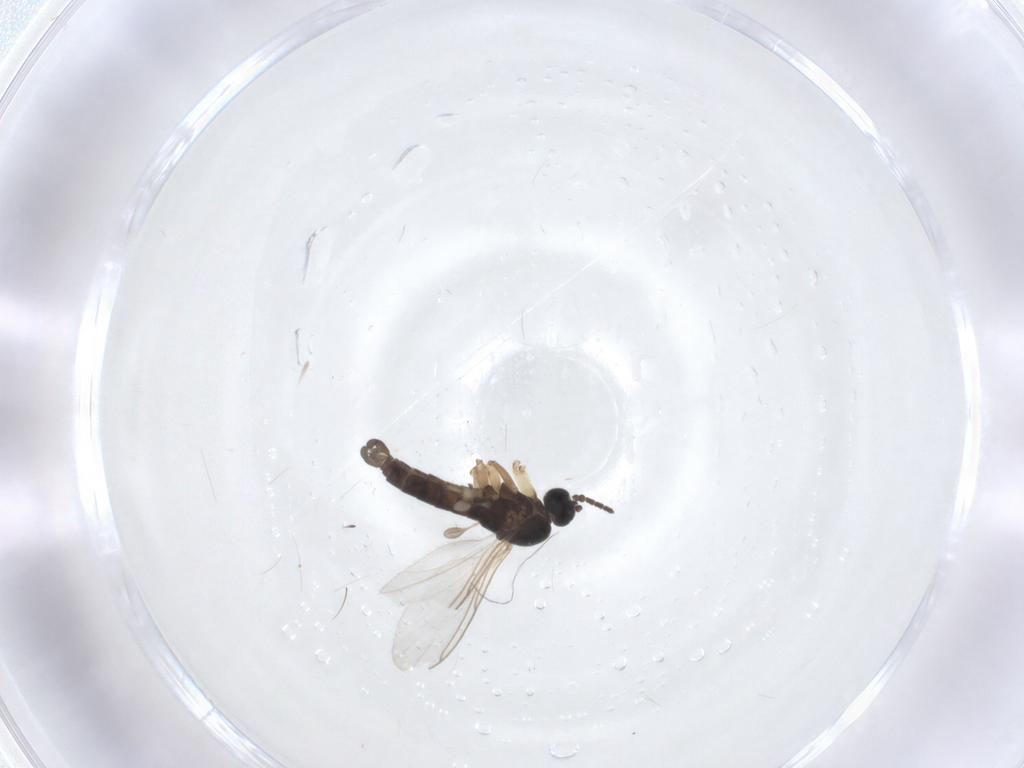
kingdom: Animalia
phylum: Arthropoda
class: Insecta
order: Diptera
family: Sciaridae
